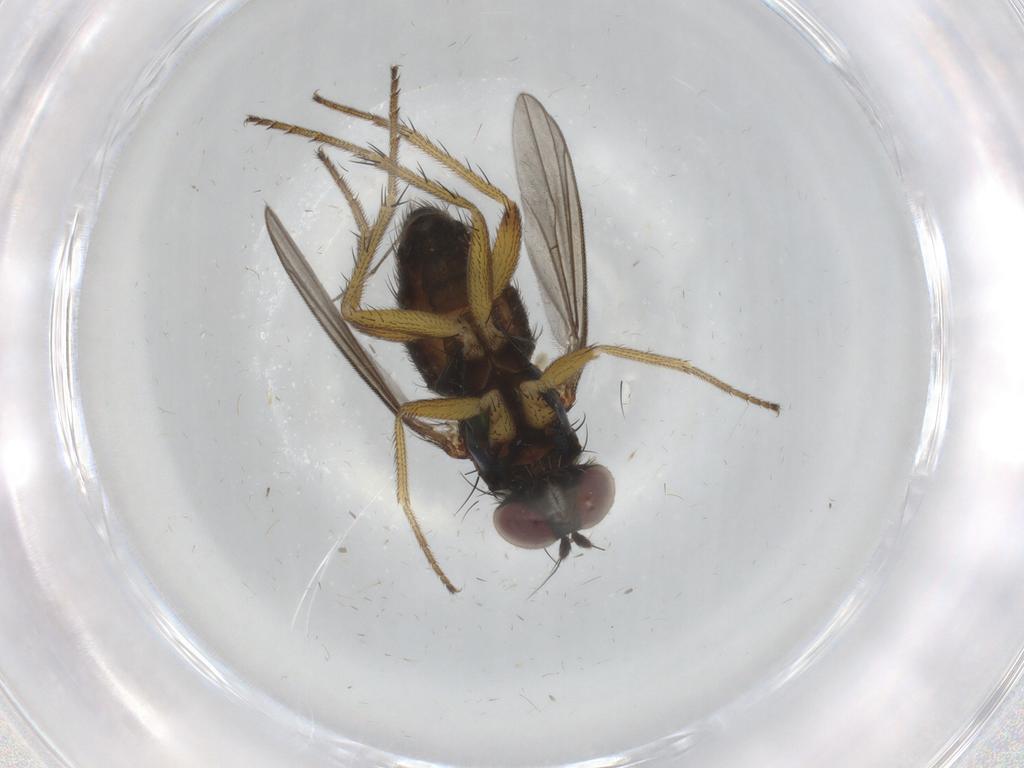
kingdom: Animalia
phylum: Arthropoda
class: Insecta
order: Diptera
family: Dolichopodidae
